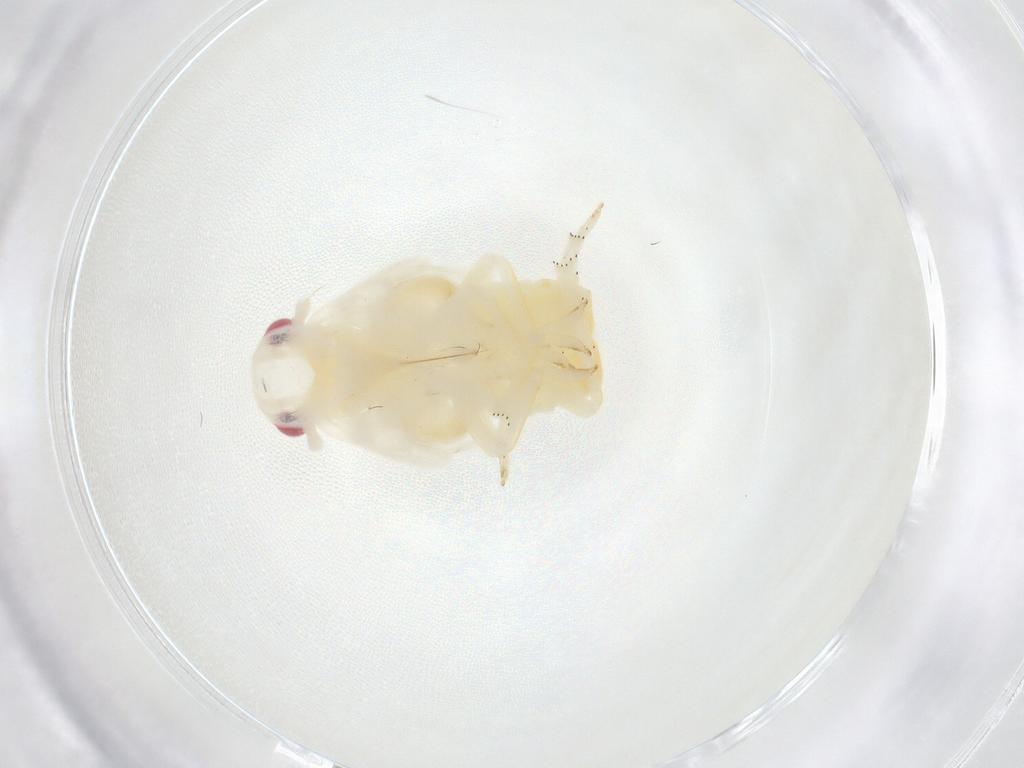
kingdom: Animalia
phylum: Arthropoda
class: Insecta
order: Hemiptera
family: Flatidae
